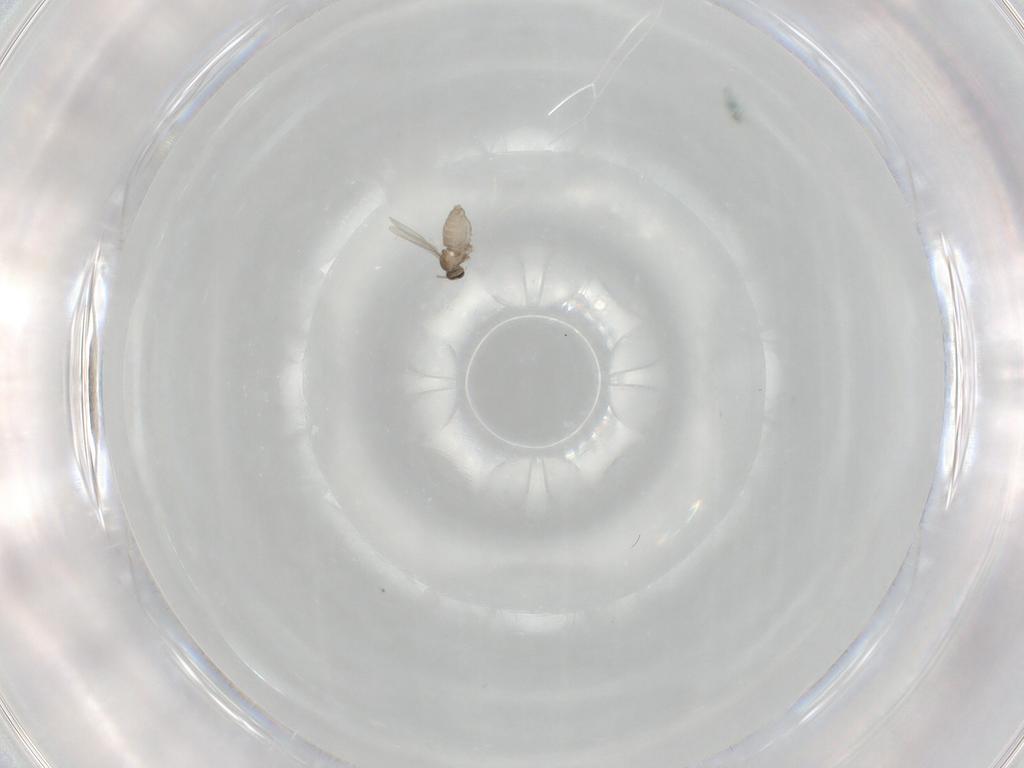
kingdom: Animalia
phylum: Arthropoda
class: Insecta
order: Diptera
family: Cecidomyiidae
